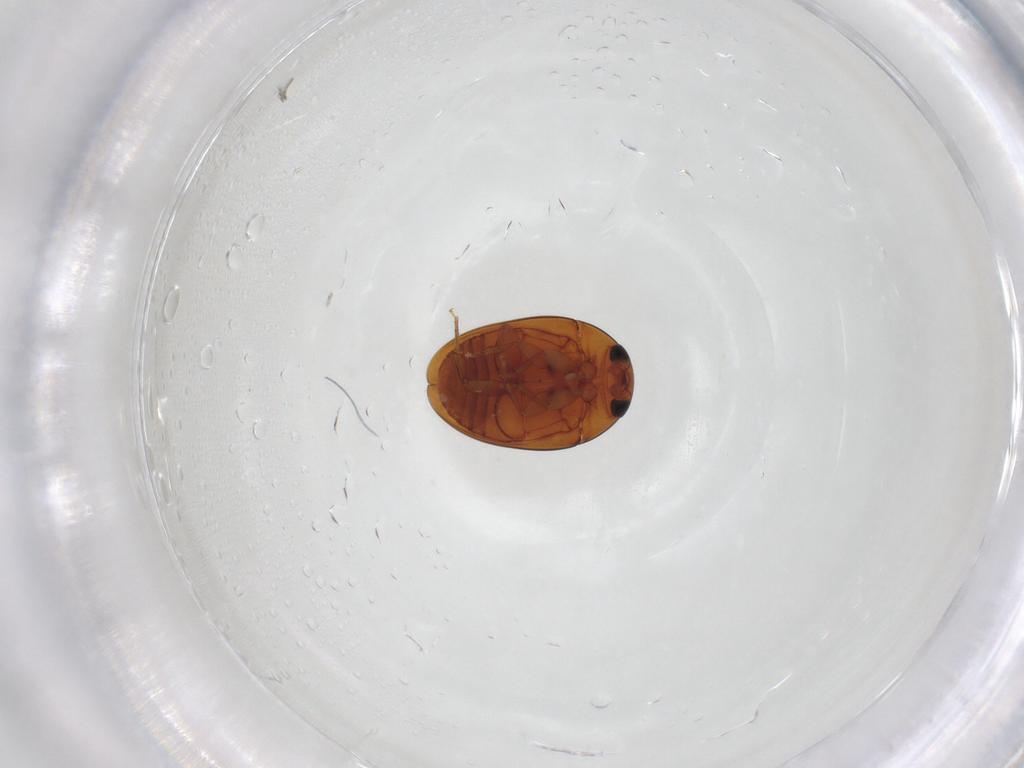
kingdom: Animalia
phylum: Arthropoda
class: Insecta
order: Coleoptera
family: Phalacridae
